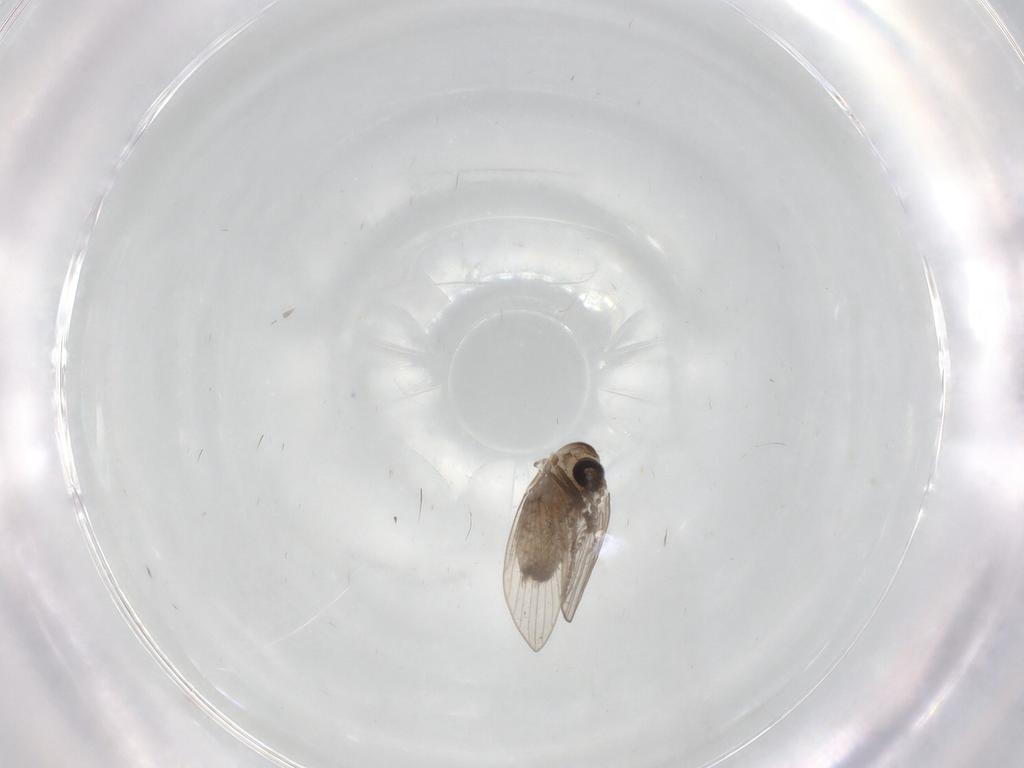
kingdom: Animalia
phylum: Arthropoda
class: Insecta
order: Diptera
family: Psychodidae
